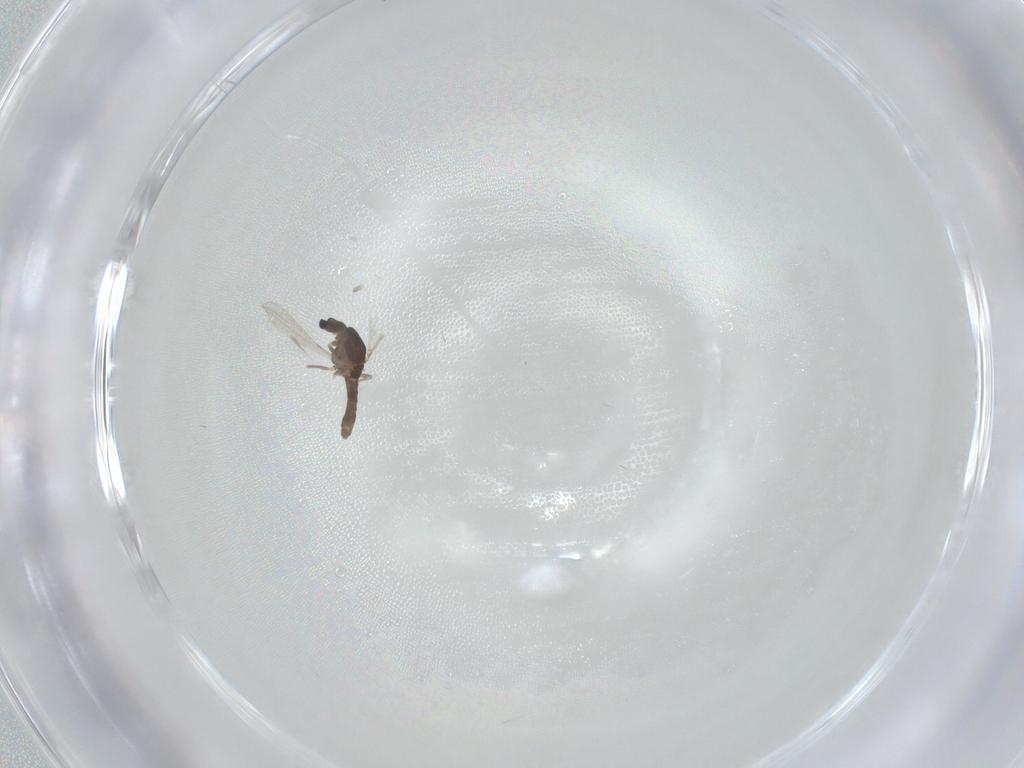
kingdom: Animalia
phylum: Arthropoda
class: Insecta
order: Diptera
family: Chironomidae
